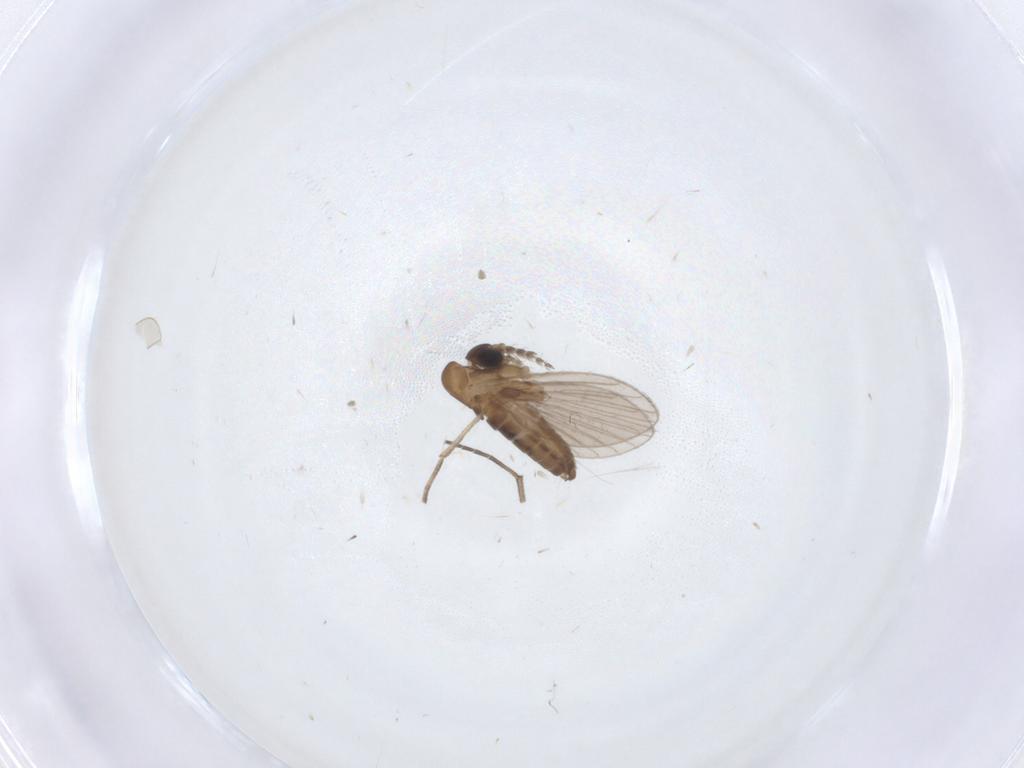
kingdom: Animalia
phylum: Arthropoda
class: Insecta
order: Diptera
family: Sciaridae
